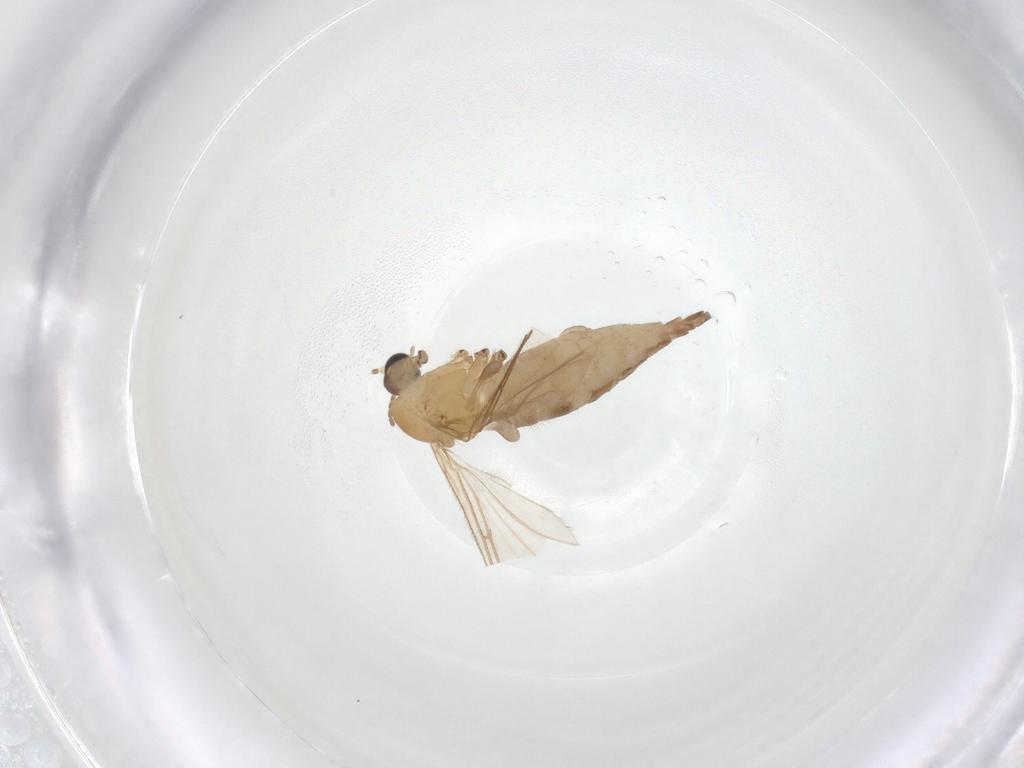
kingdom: Animalia
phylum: Arthropoda
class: Insecta
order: Diptera
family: Sciaridae
